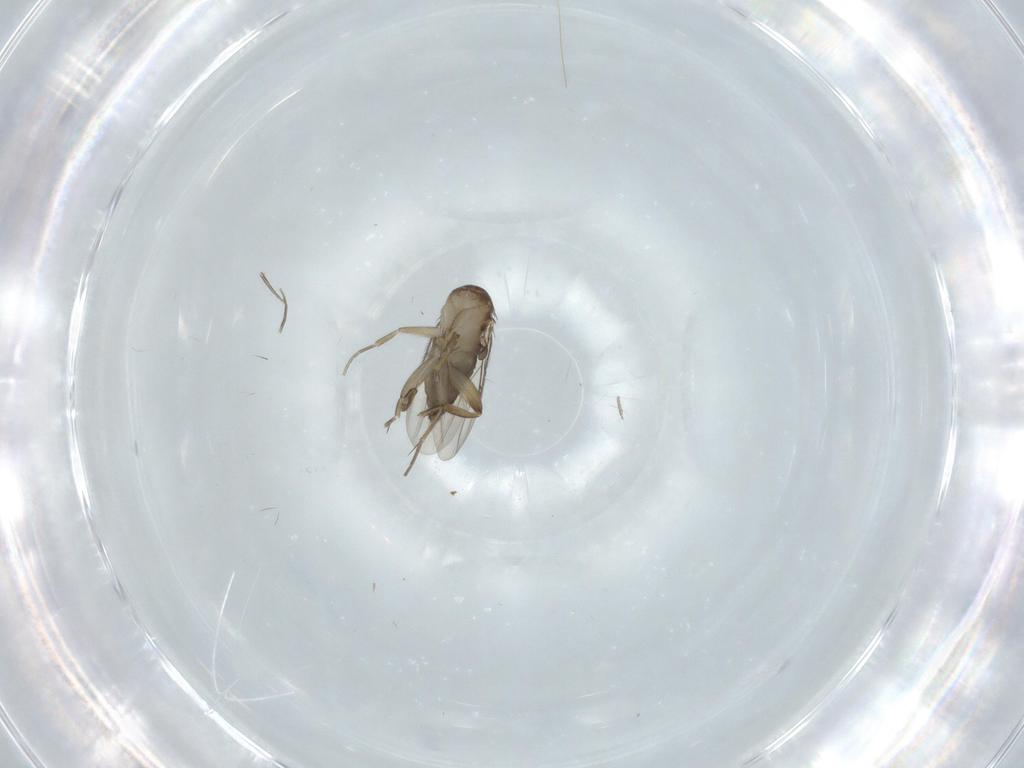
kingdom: Animalia
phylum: Arthropoda
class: Insecta
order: Diptera
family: Phoridae
